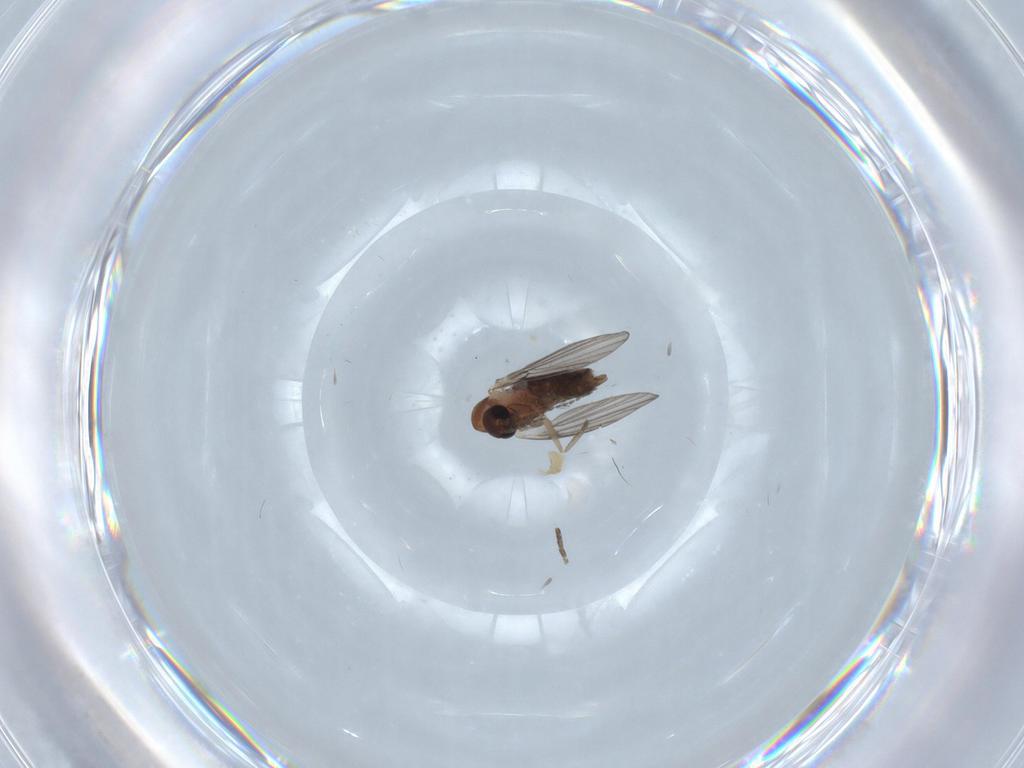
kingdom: Animalia
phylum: Arthropoda
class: Insecta
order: Diptera
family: Psychodidae
